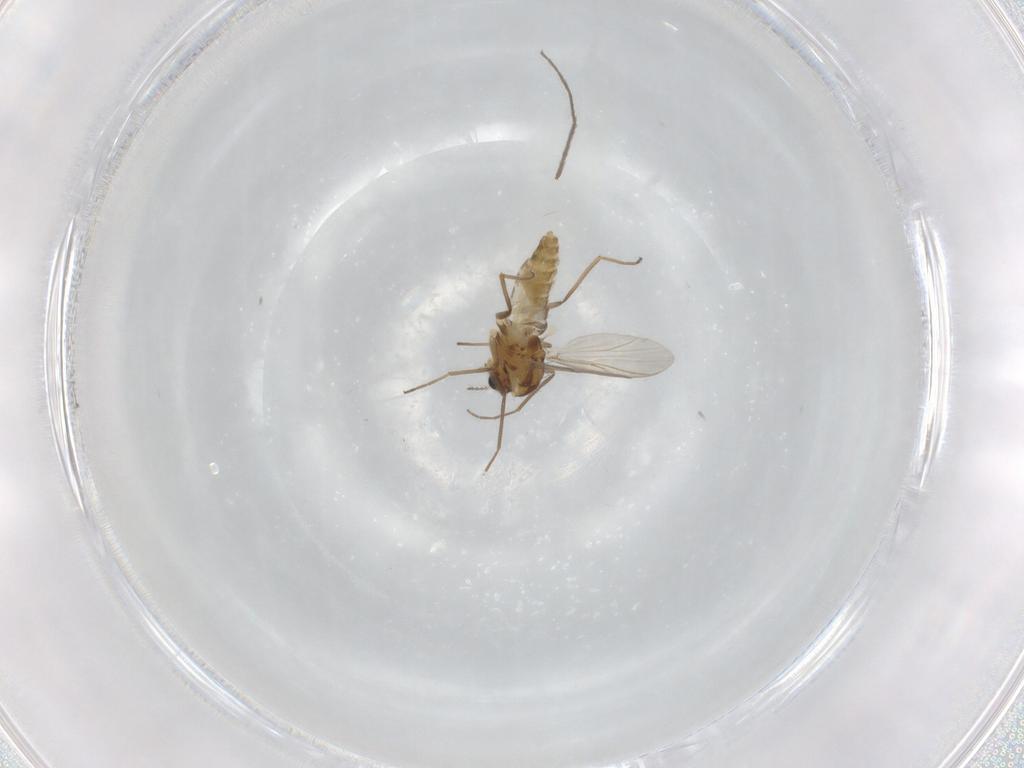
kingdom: Animalia
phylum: Arthropoda
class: Insecta
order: Diptera
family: Chironomidae
